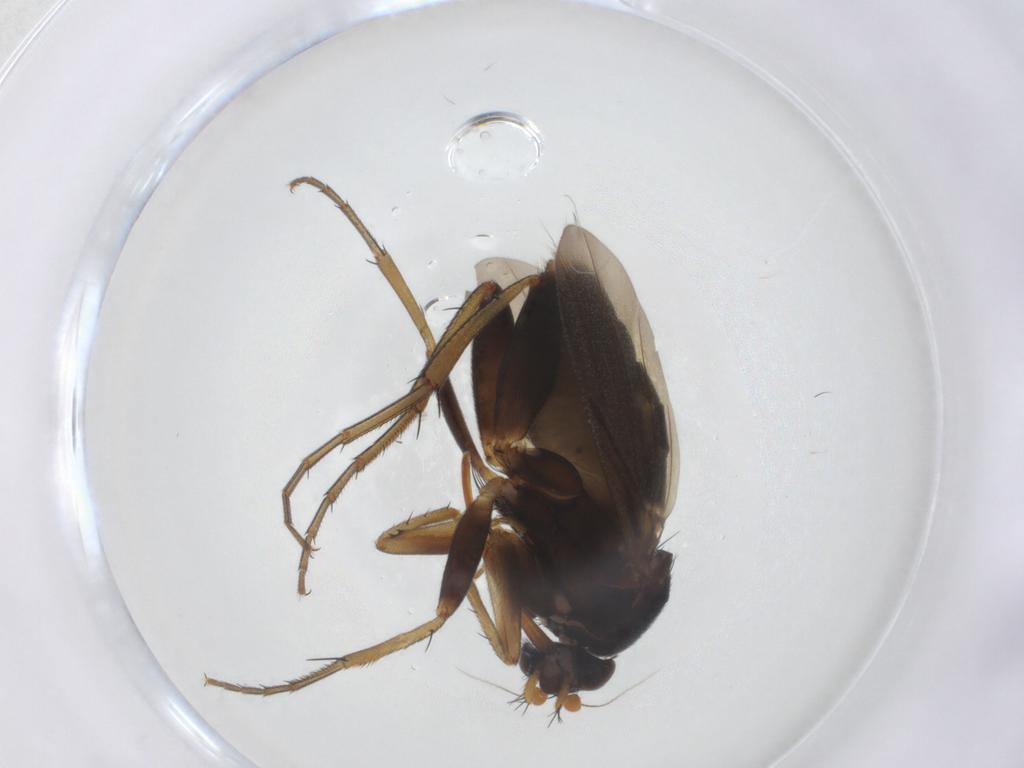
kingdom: Animalia
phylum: Arthropoda
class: Insecta
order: Diptera
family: Phoridae
